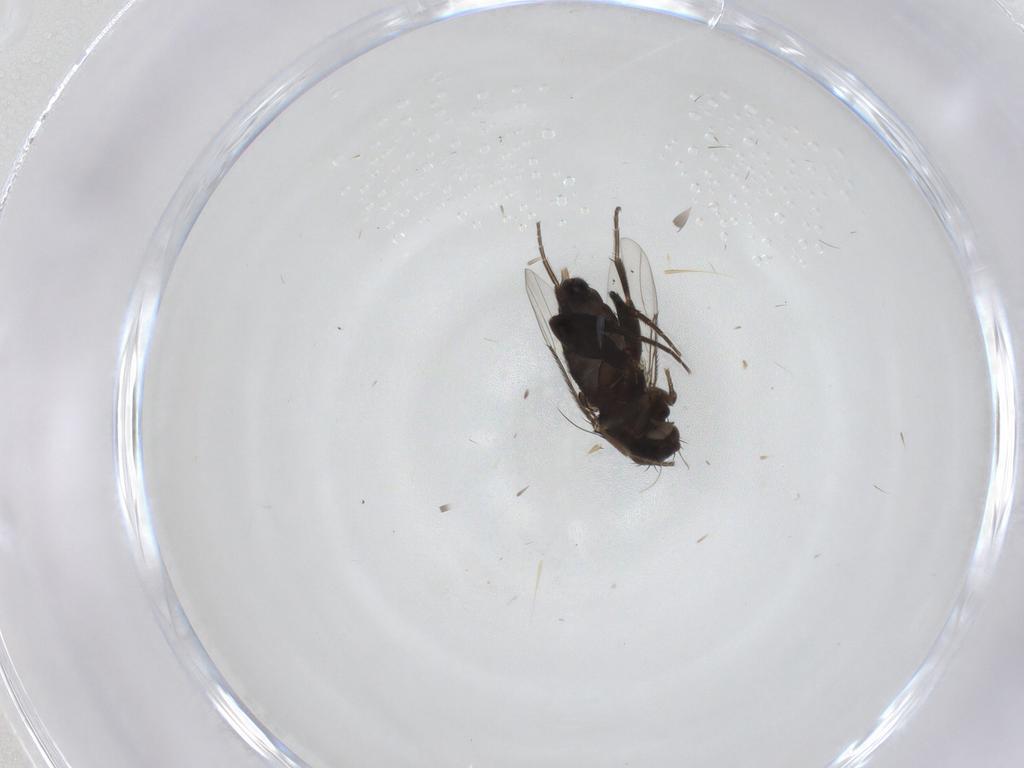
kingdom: Animalia
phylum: Arthropoda
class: Insecta
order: Diptera
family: Phoridae
